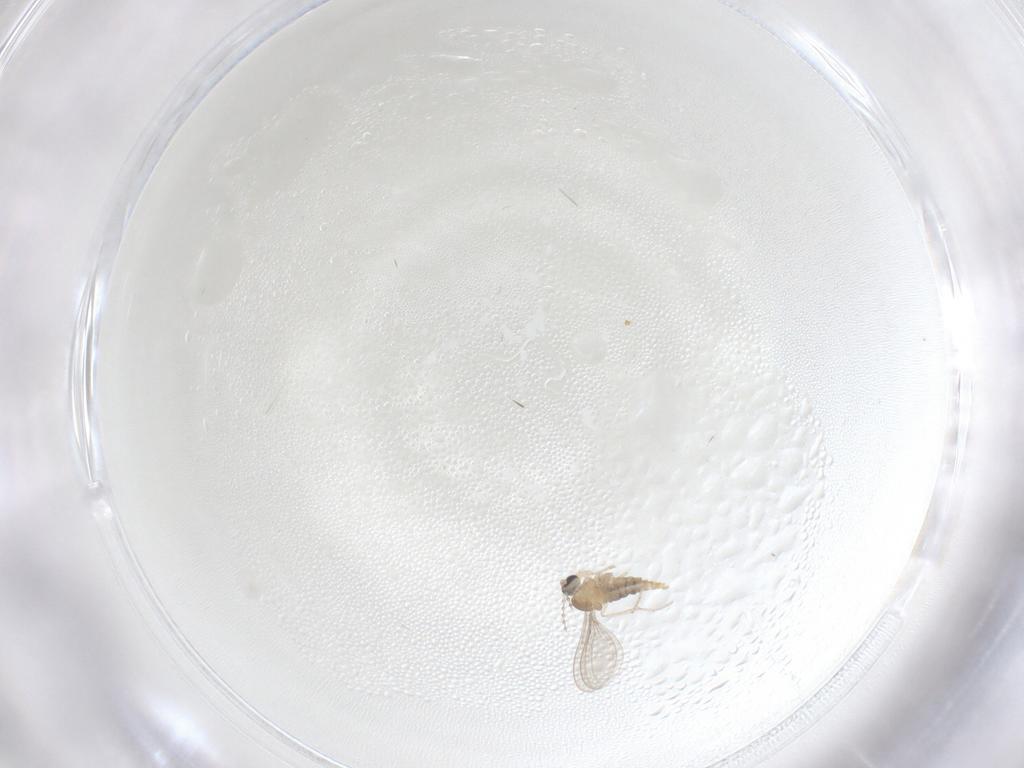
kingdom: Animalia
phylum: Arthropoda
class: Insecta
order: Diptera
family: Cecidomyiidae
